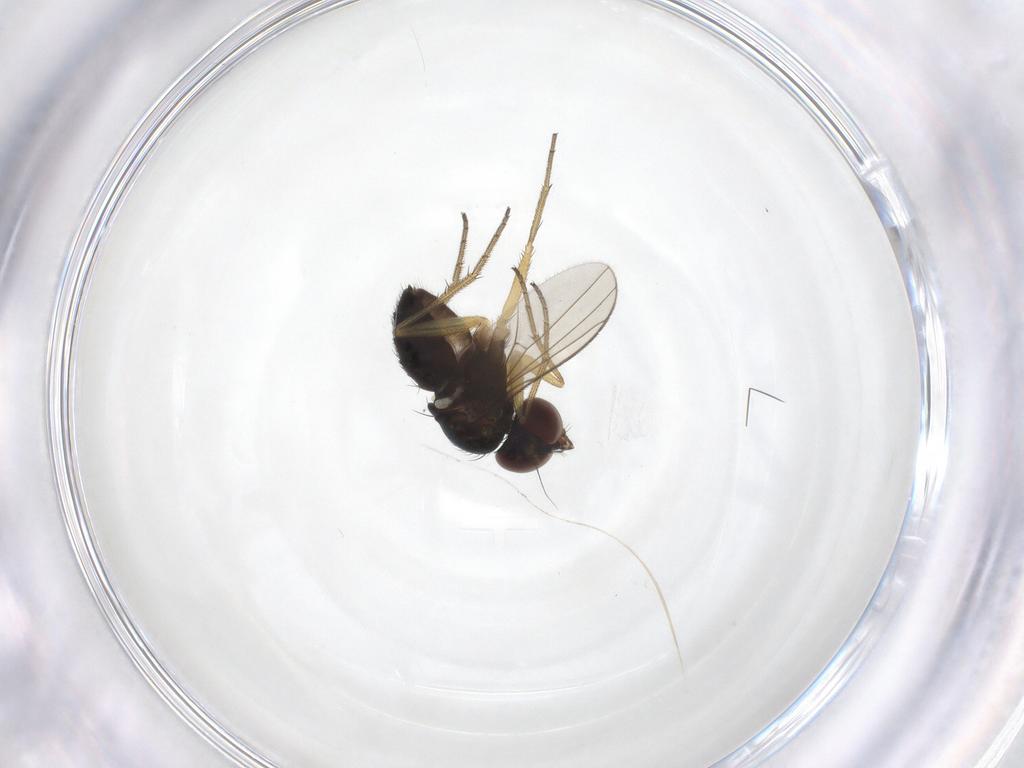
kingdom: Animalia
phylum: Arthropoda
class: Insecta
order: Diptera
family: Dolichopodidae
